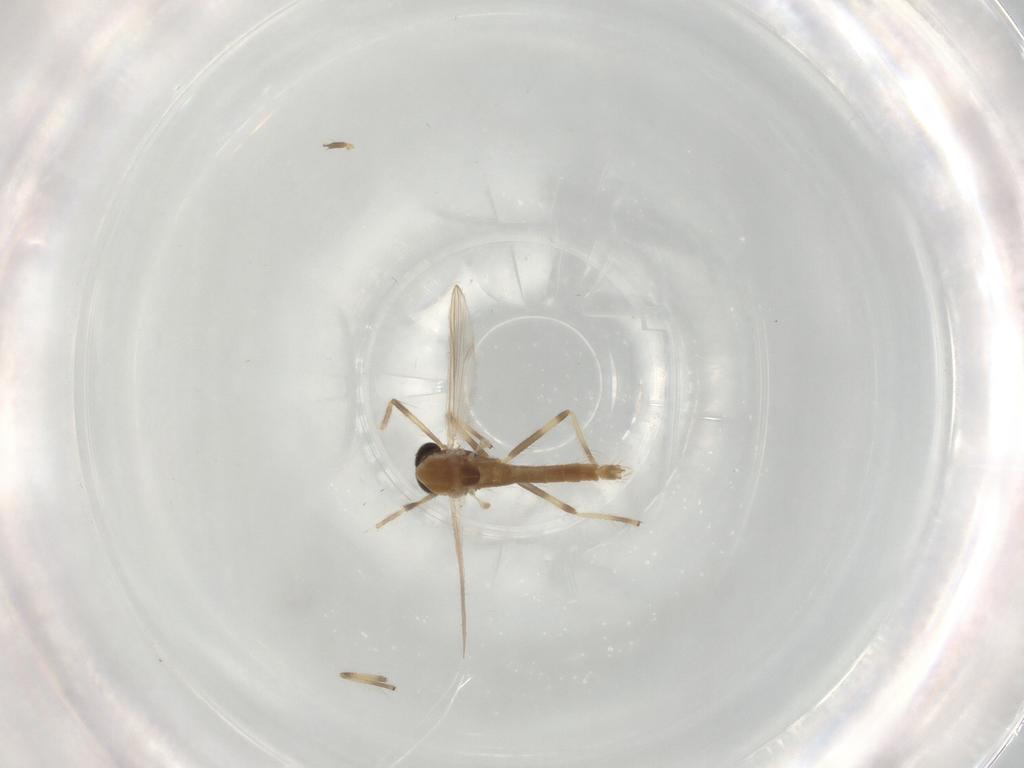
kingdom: Animalia
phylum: Arthropoda
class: Insecta
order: Diptera
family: Chironomidae
